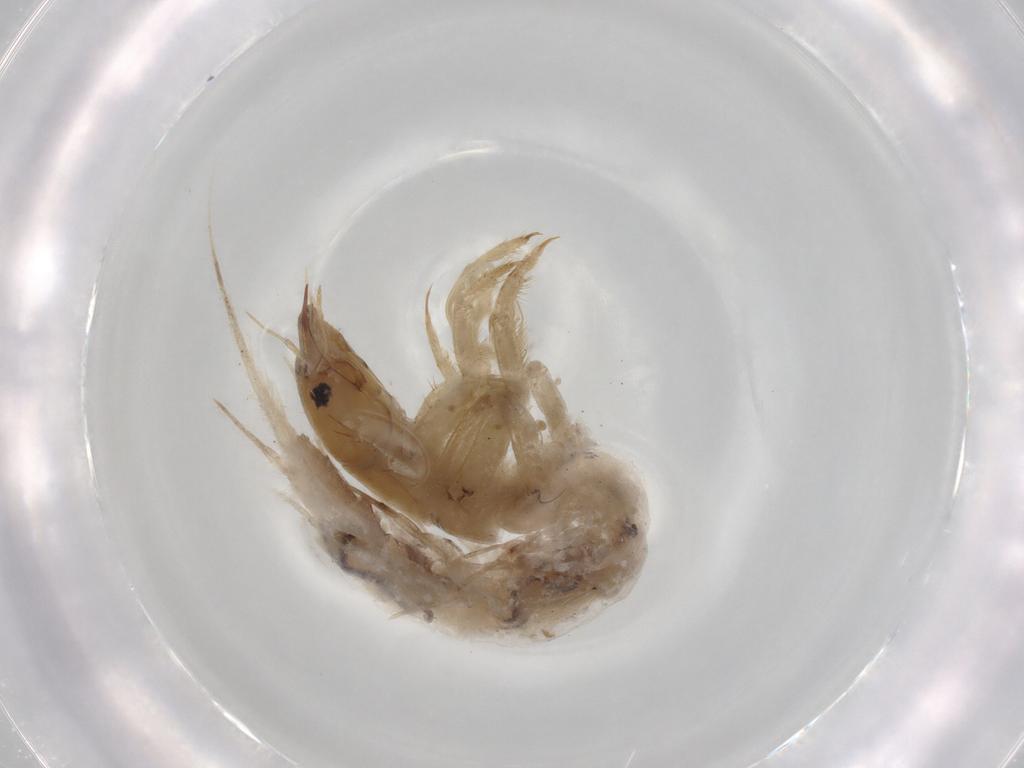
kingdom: Animalia
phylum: Arthropoda
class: Insecta
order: Megaloptera
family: Sialidae
